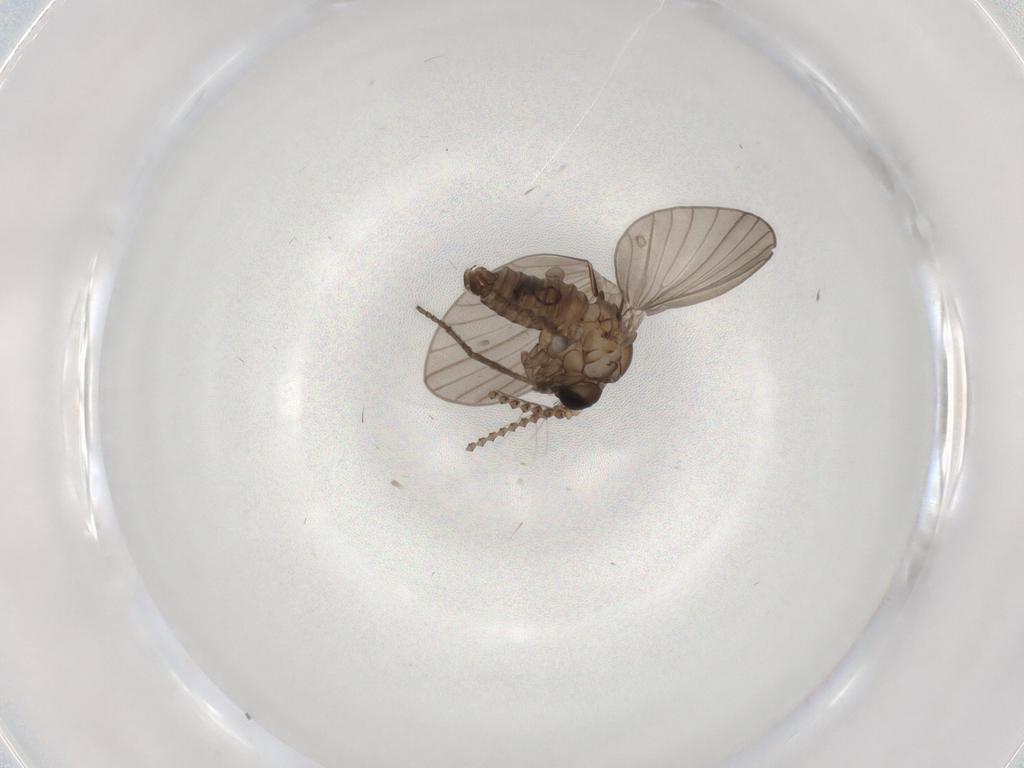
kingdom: Animalia
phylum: Arthropoda
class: Insecta
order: Diptera
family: Psychodidae
